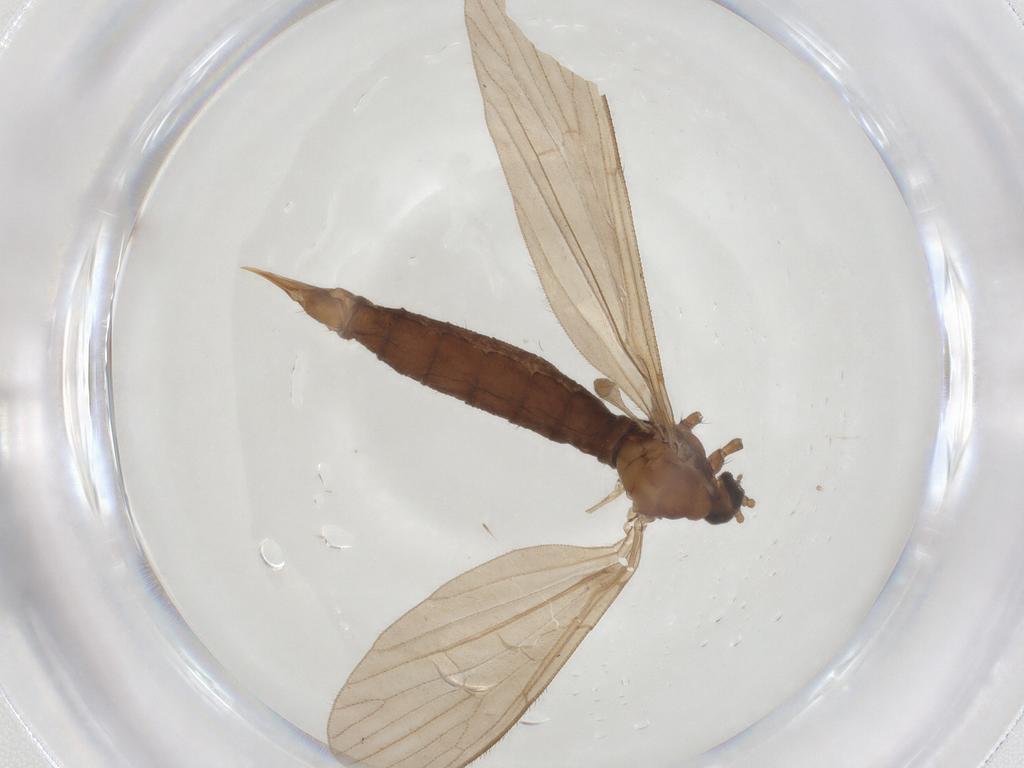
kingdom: Animalia
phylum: Arthropoda
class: Insecta
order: Diptera
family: Limoniidae
